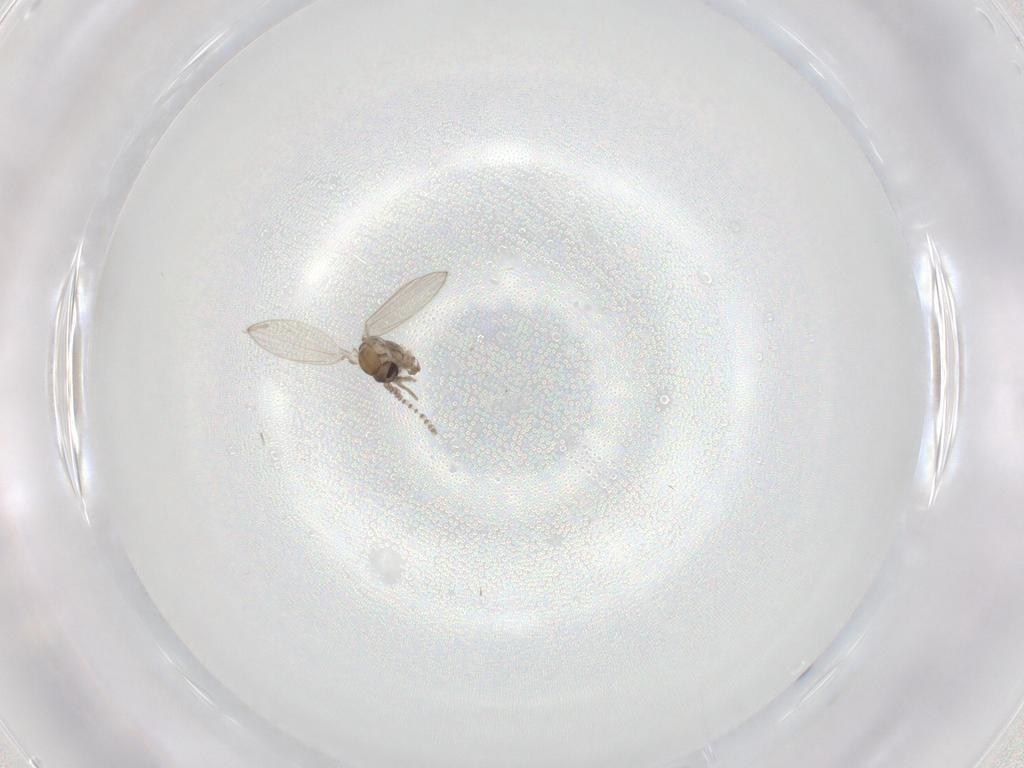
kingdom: Animalia
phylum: Arthropoda
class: Insecta
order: Diptera
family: Psychodidae
